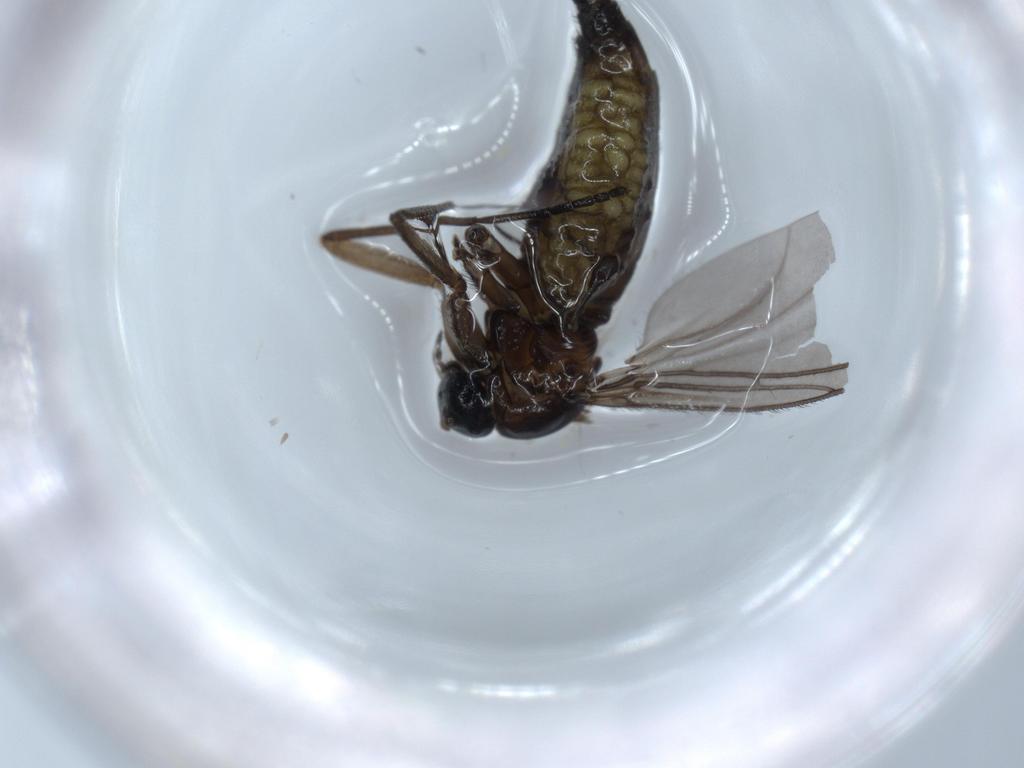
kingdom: Animalia
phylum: Arthropoda
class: Insecta
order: Diptera
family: Sciaridae
